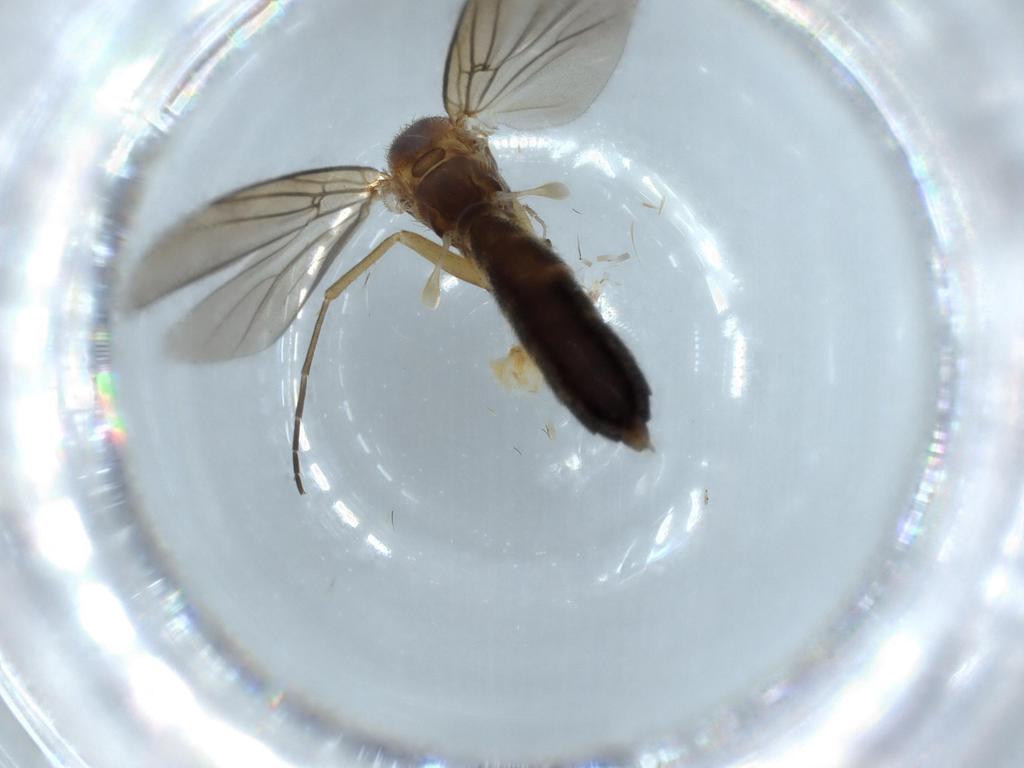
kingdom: Animalia
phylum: Arthropoda
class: Insecta
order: Diptera
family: Mycetophilidae
